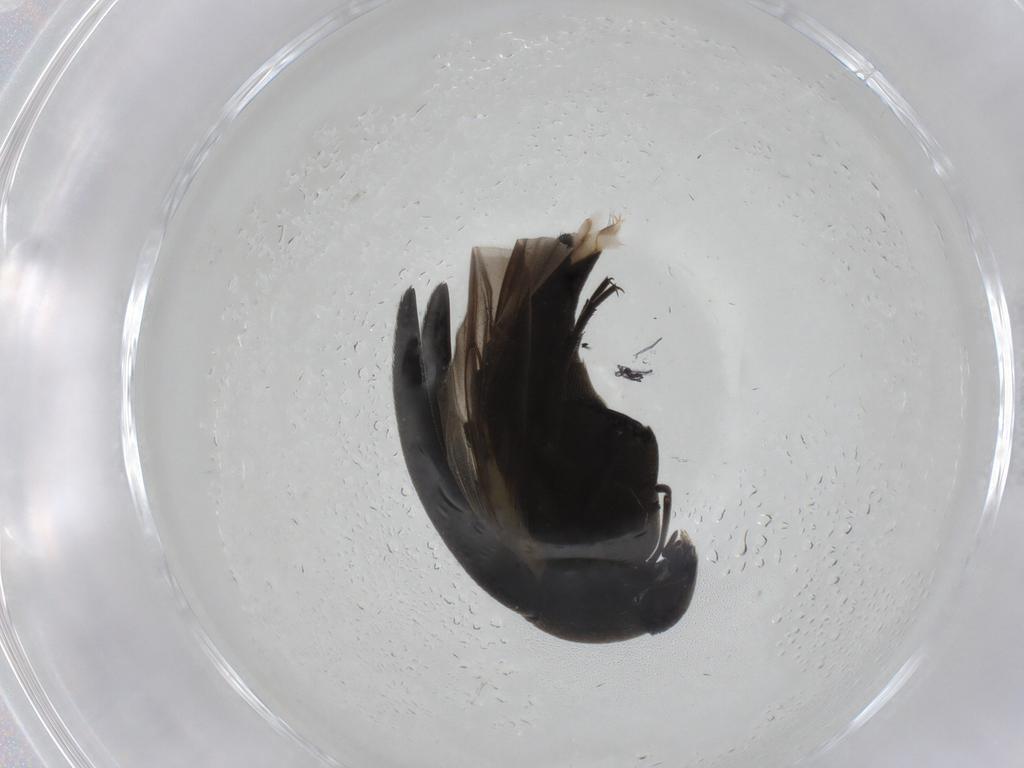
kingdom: Animalia
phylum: Arthropoda
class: Insecta
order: Coleoptera
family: Mordellidae
